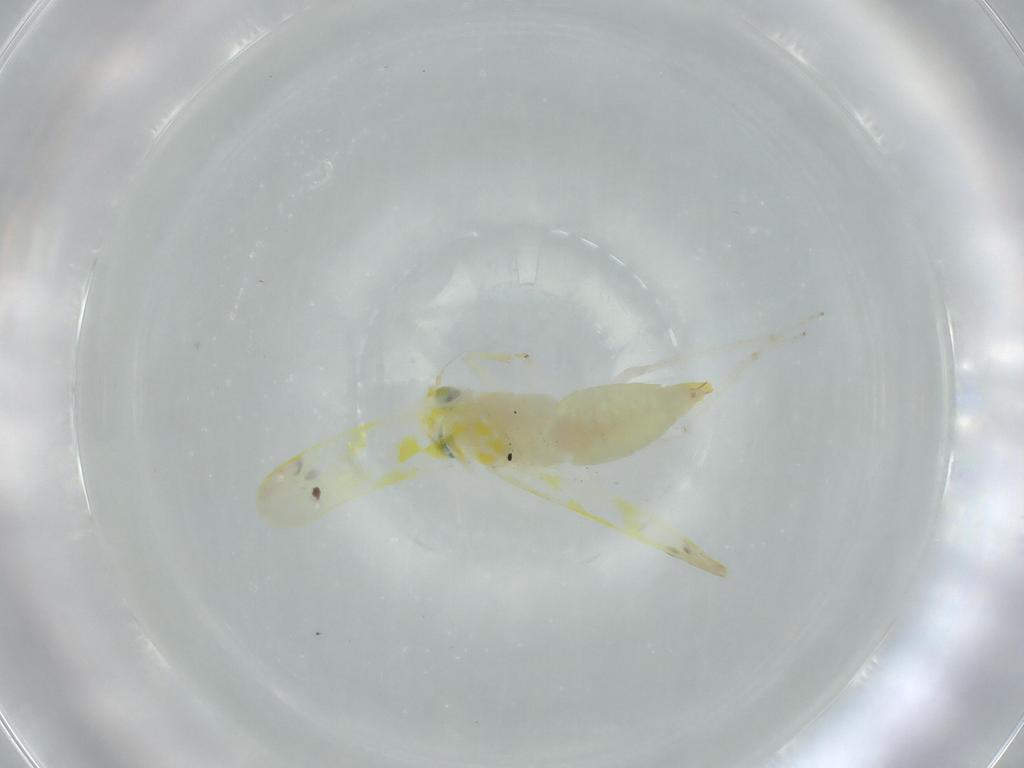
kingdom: Animalia
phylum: Arthropoda
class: Insecta
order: Hemiptera
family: Cicadellidae
